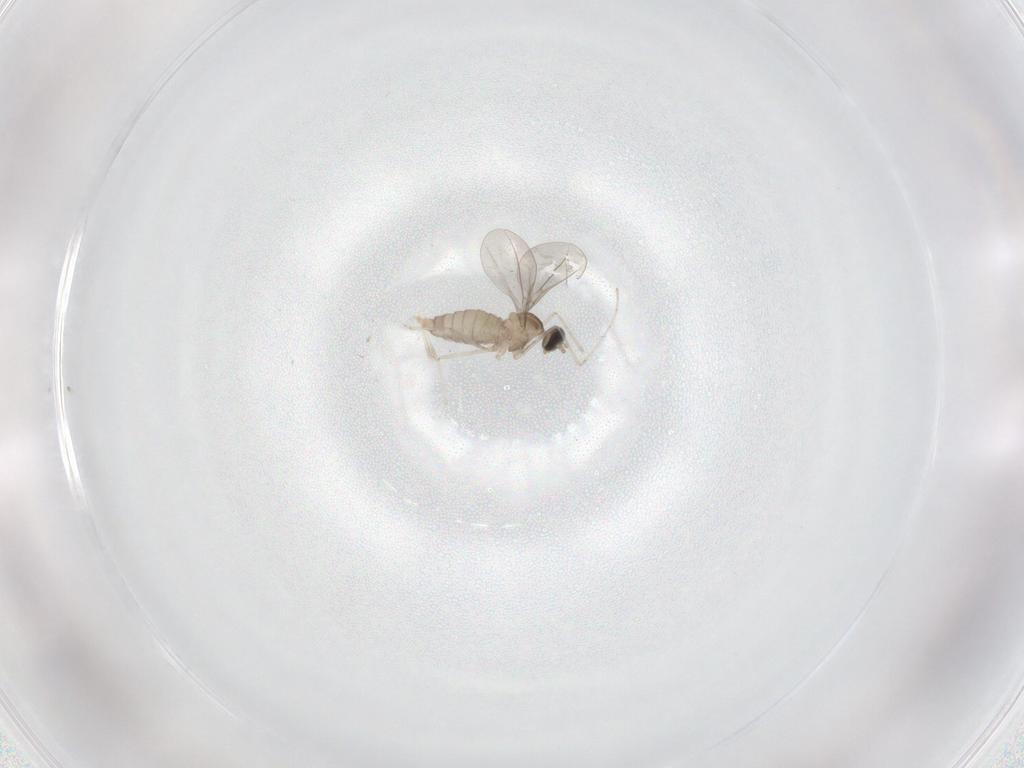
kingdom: Animalia
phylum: Arthropoda
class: Insecta
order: Diptera
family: Cecidomyiidae
